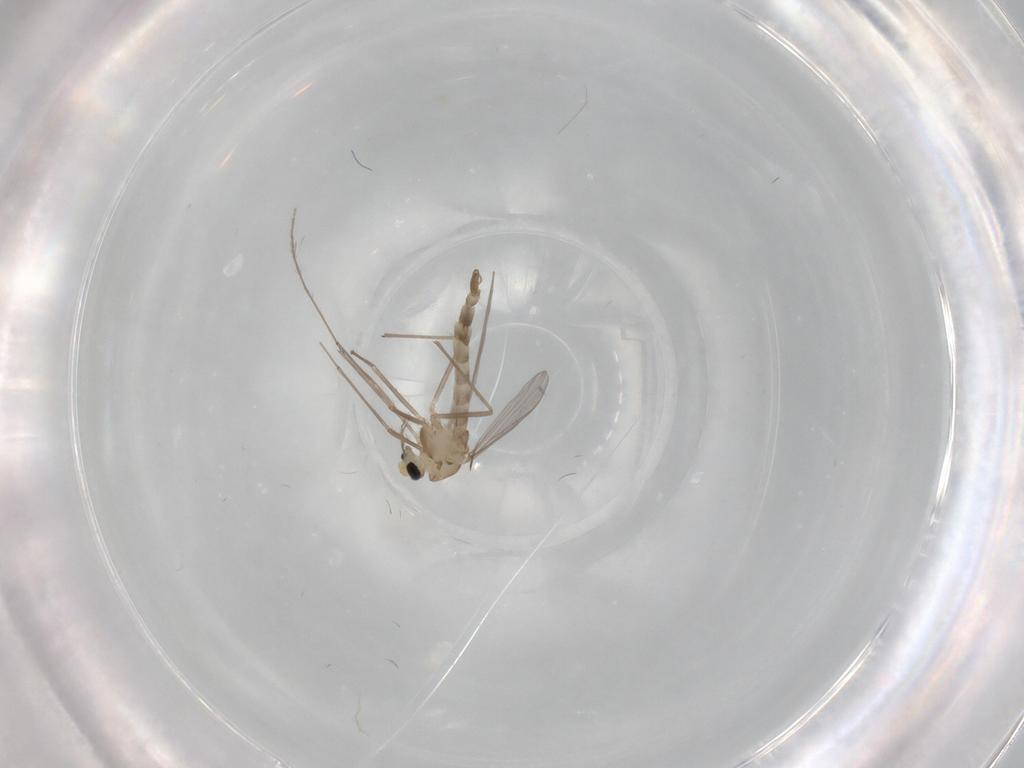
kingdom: Animalia
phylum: Arthropoda
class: Insecta
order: Diptera
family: Chironomidae
